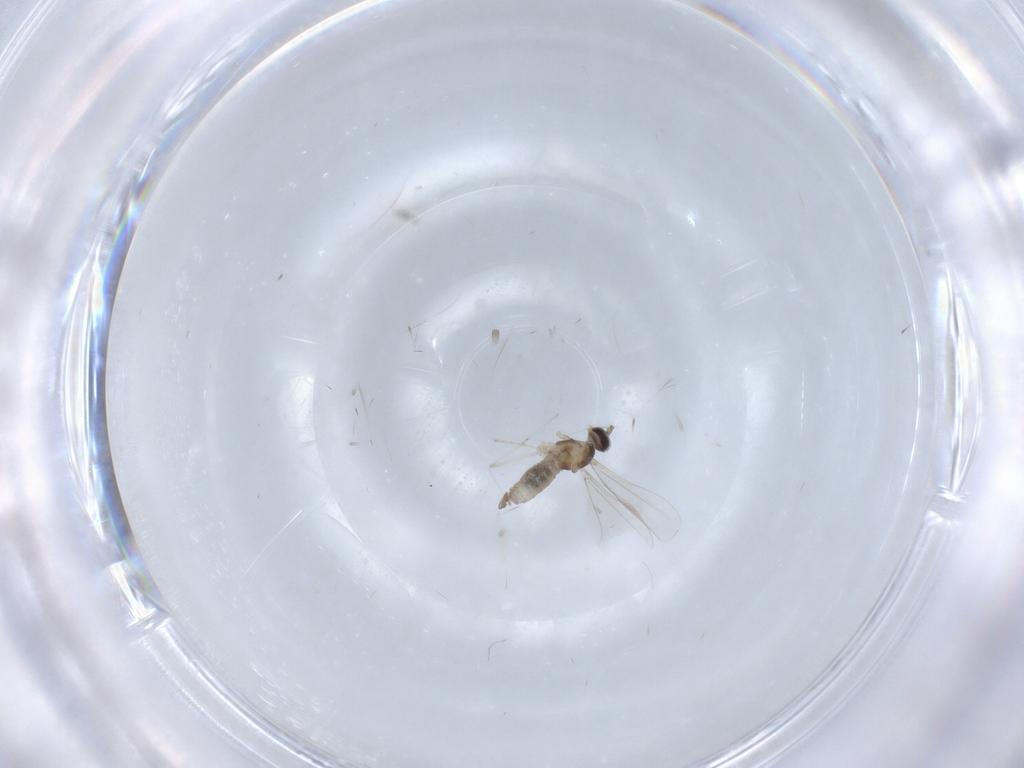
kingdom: Animalia
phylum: Arthropoda
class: Insecta
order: Diptera
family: Cecidomyiidae
